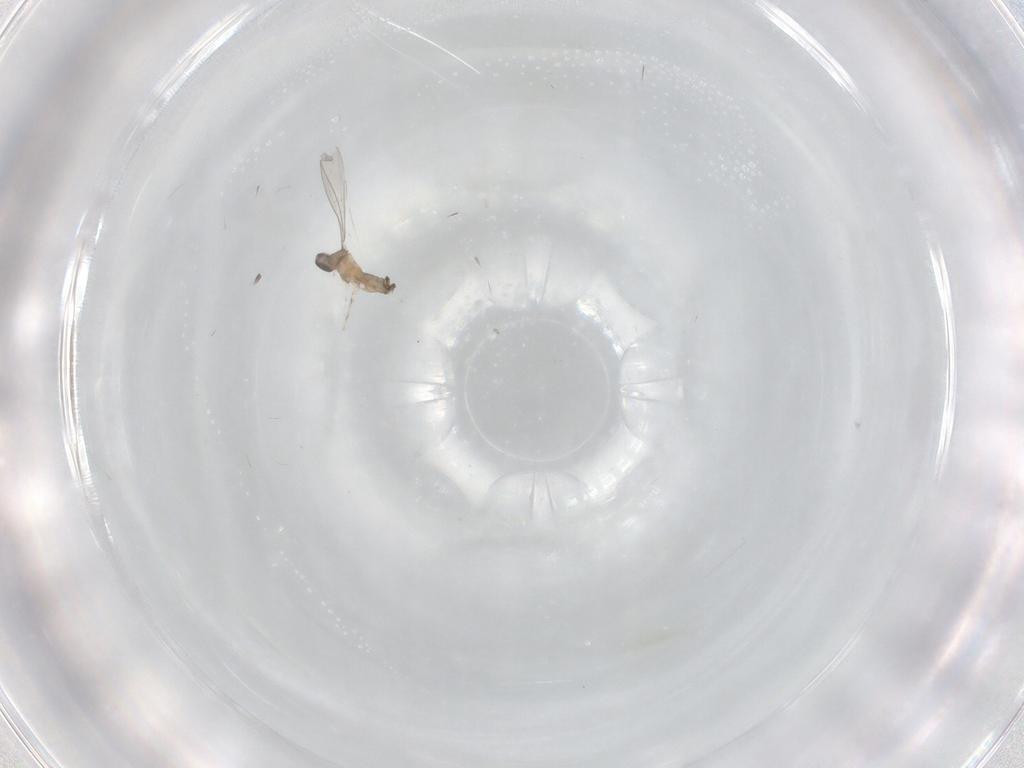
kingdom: Animalia
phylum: Arthropoda
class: Insecta
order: Diptera
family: Cecidomyiidae
